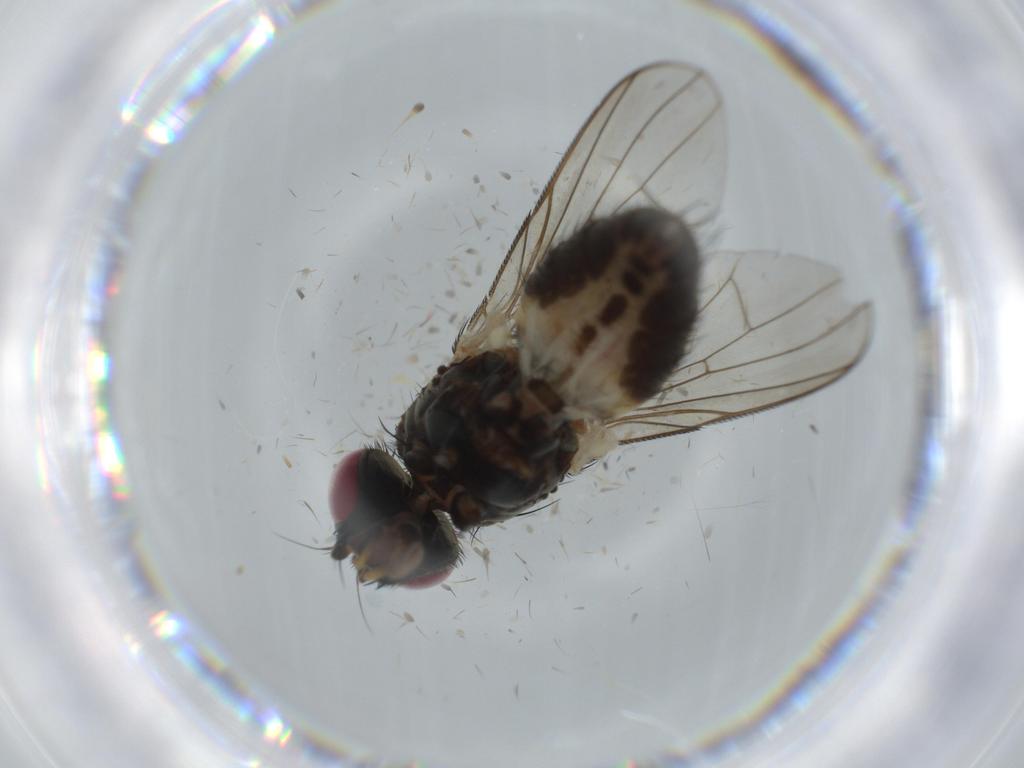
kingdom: Animalia
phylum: Arthropoda
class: Insecta
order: Diptera
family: Fannia
